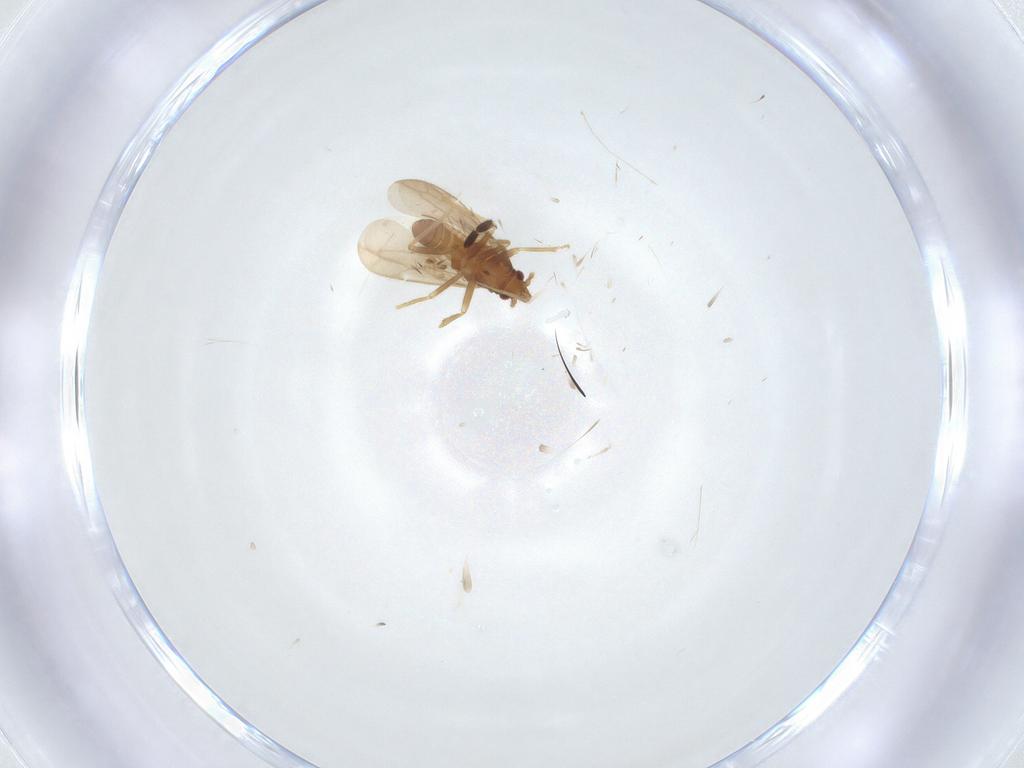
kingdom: Animalia
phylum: Arthropoda
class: Insecta
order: Hemiptera
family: Ceratocombidae
